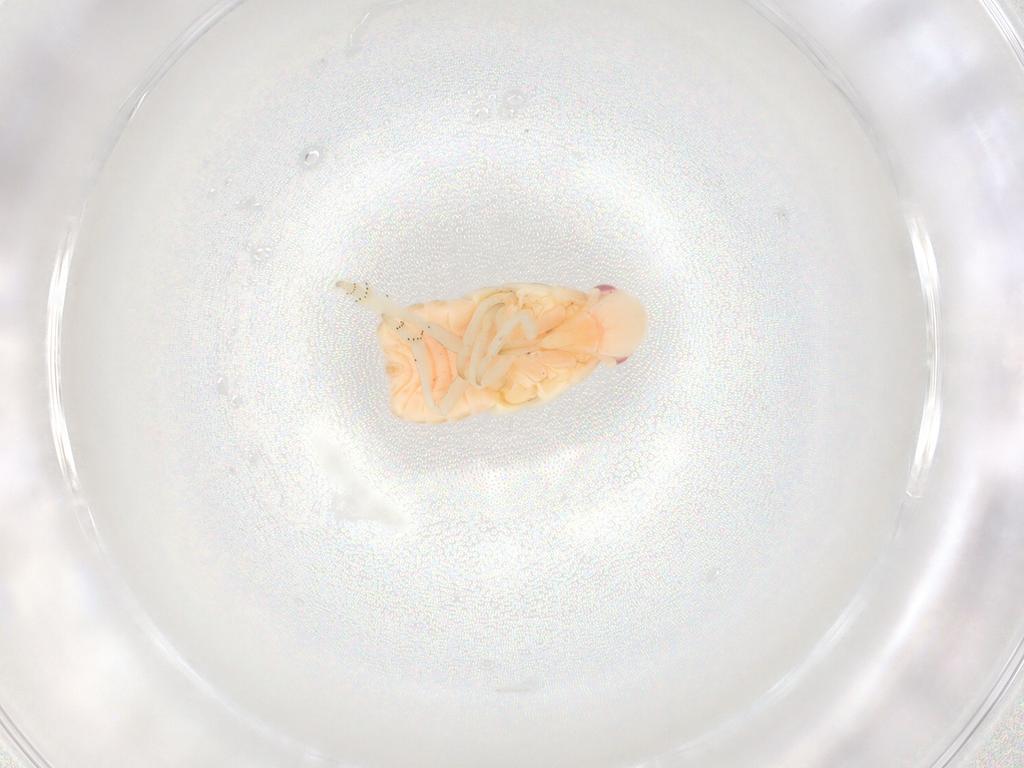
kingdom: Animalia
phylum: Arthropoda
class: Insecta
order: Hemiptera
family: Flatidae
